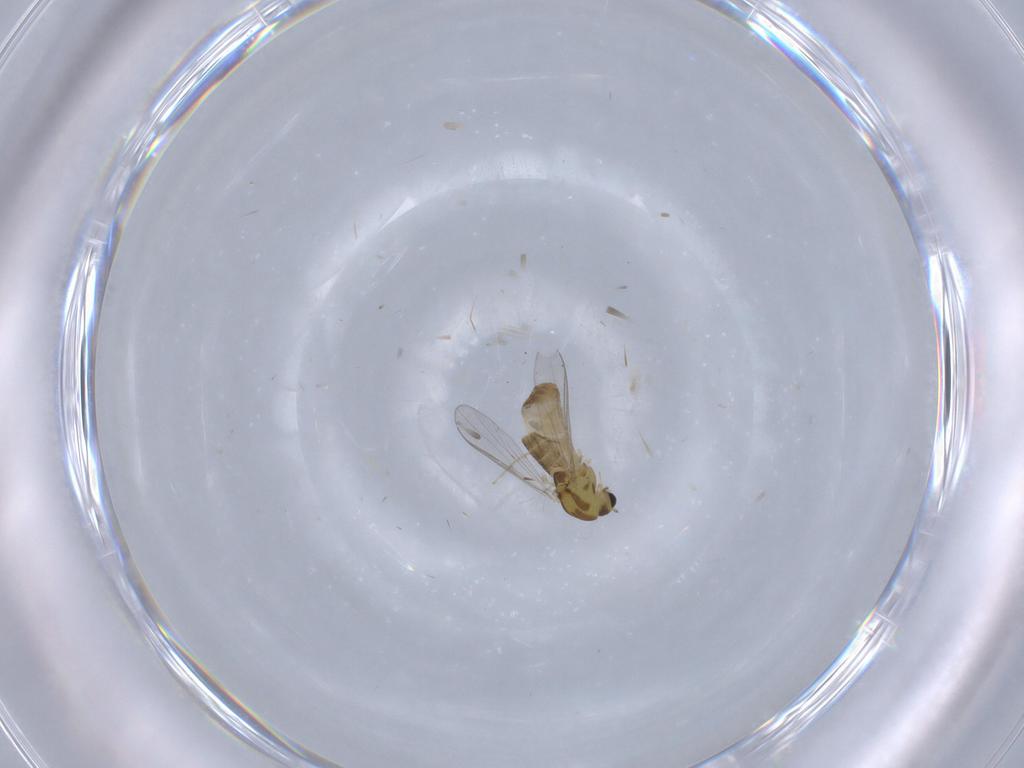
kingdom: Animalia
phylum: Arthropoda
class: Insecta
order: Diptera
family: Chironomidae
